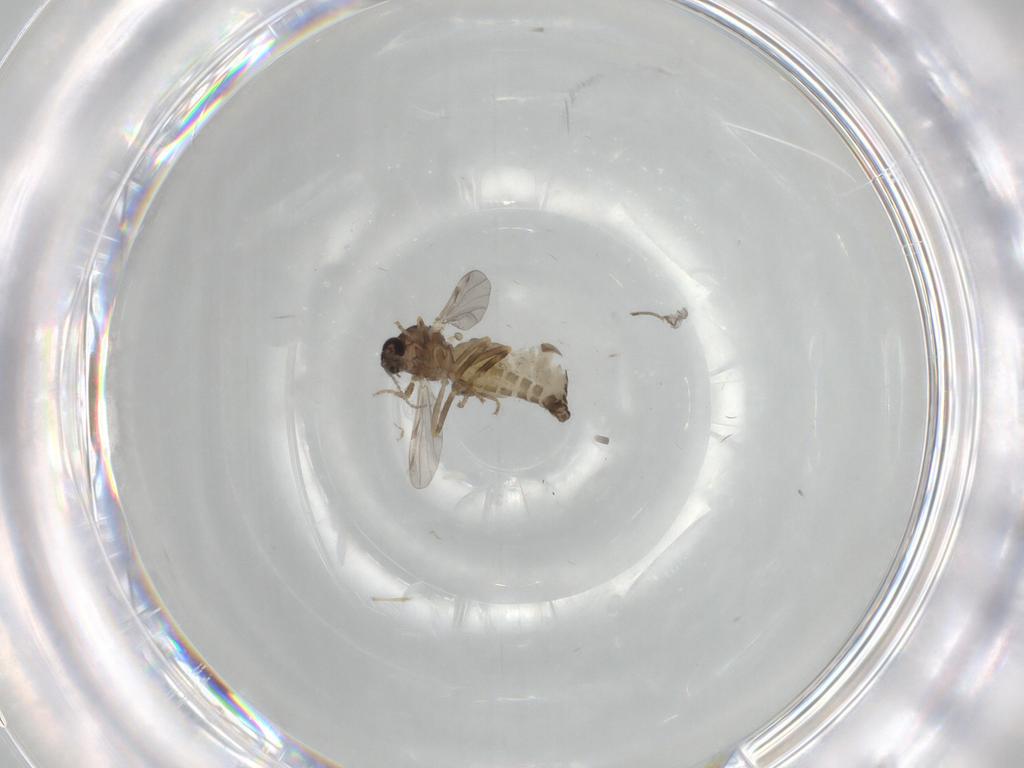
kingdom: Animalia
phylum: Arthropoda
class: Insecta
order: Diptera
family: Ceratopogonidae
